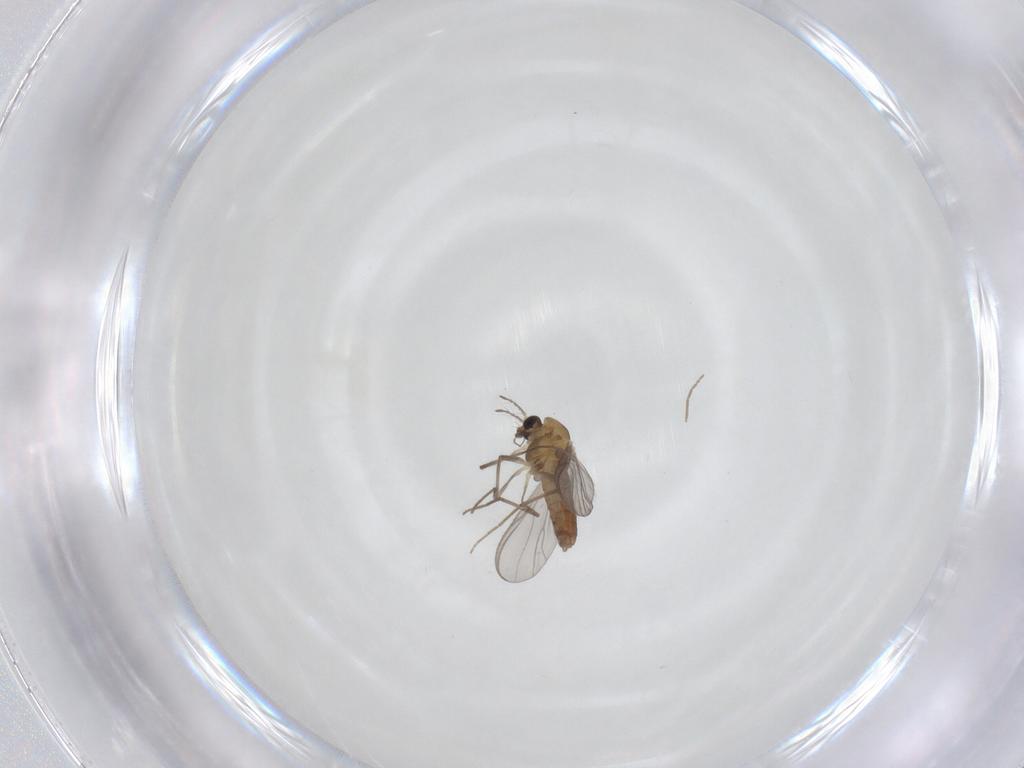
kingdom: Animalia
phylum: Arthropoda
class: Insecta
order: Diptera
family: Chironomidae
